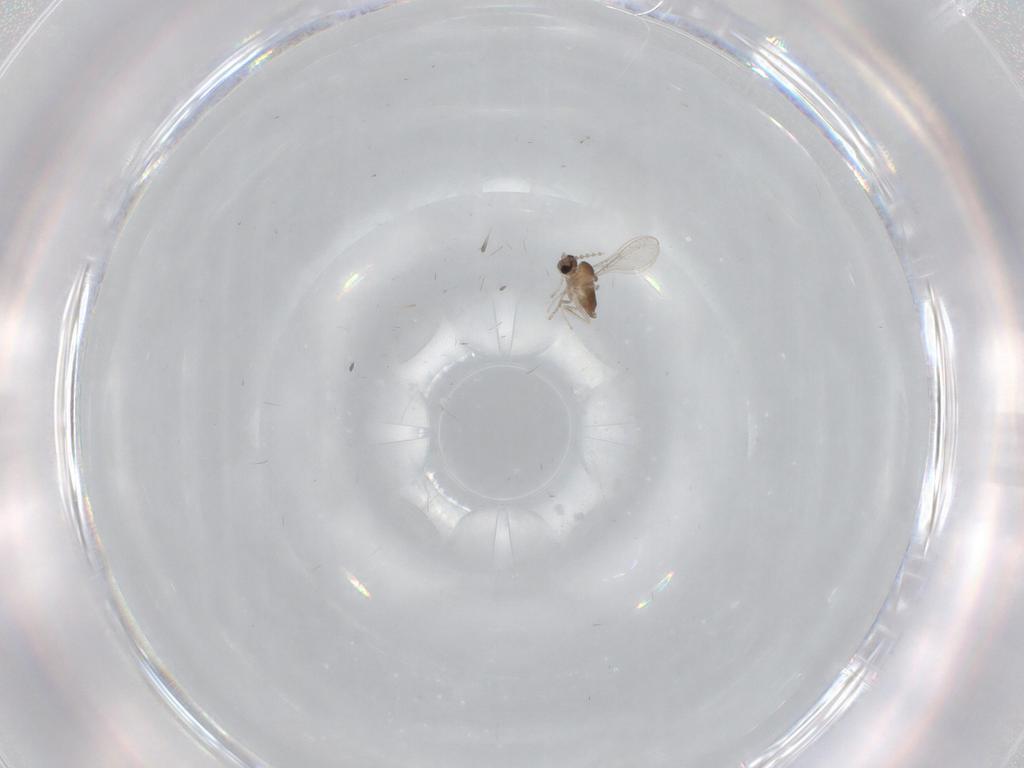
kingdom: Animalia
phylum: Arthropoda
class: Insecta
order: Diptera
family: Cecidomyiidae
